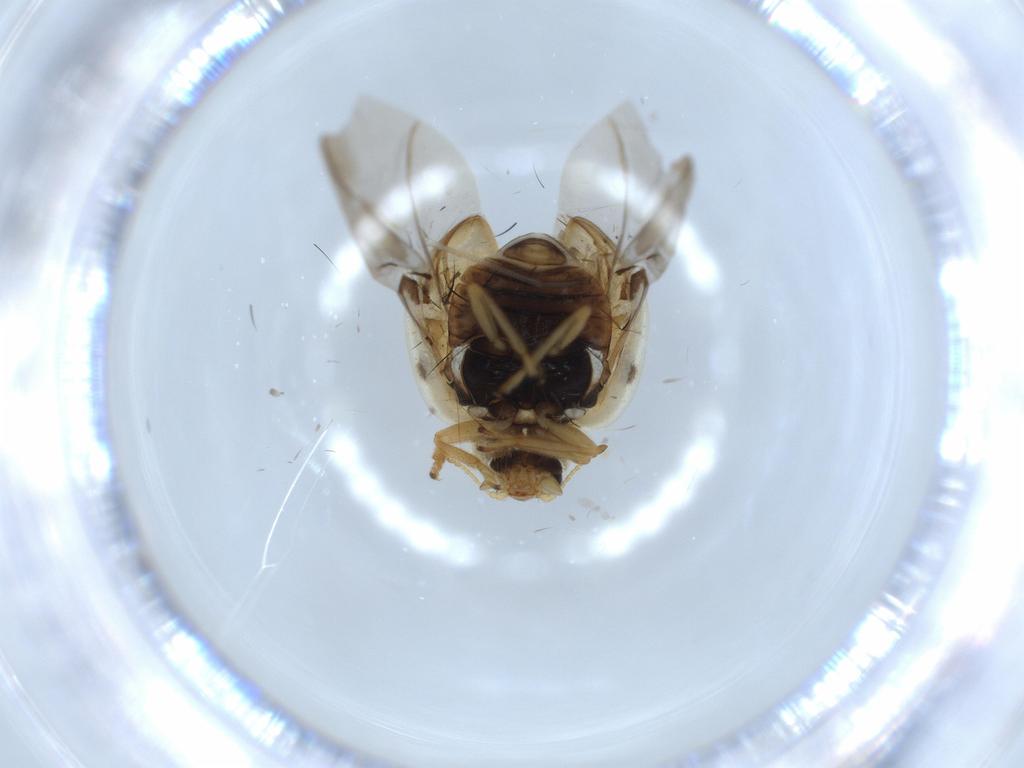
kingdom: Animalia
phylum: Arthropoda
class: Insecta
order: Coleoptera
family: Coccinellidae
